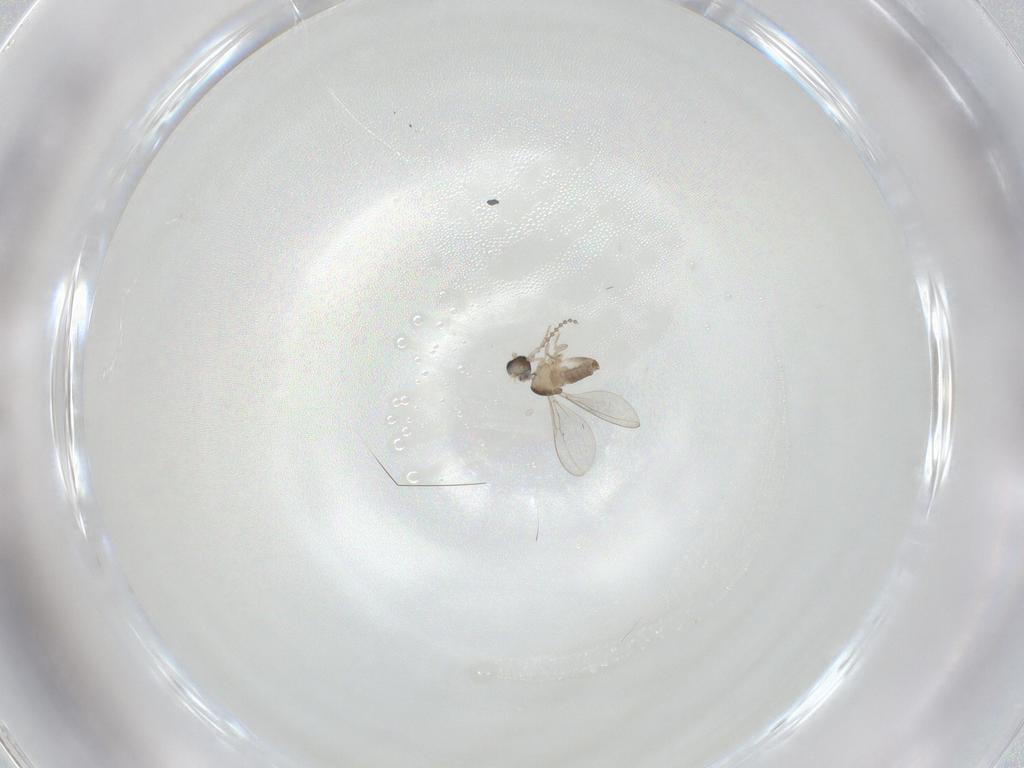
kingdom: Animalia
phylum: Arthropoda
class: Insecta
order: Diptera
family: Cecidomyiidae
